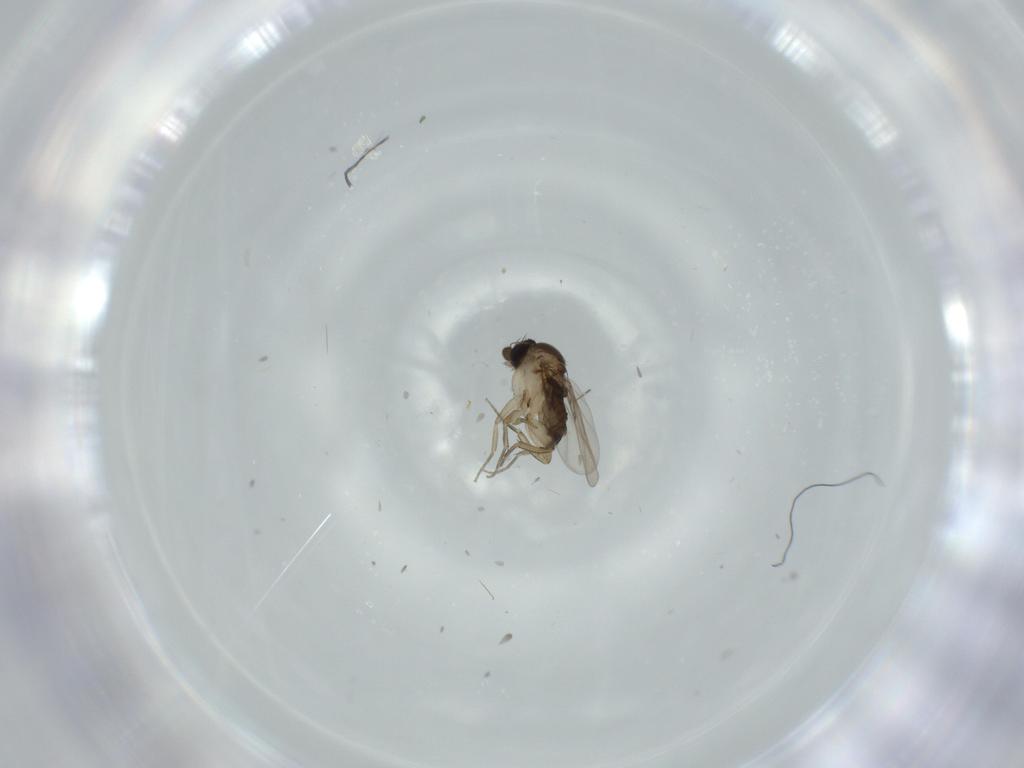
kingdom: Animalia
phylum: Arthropoda
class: Insecta
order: Diptera
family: Phoridae
